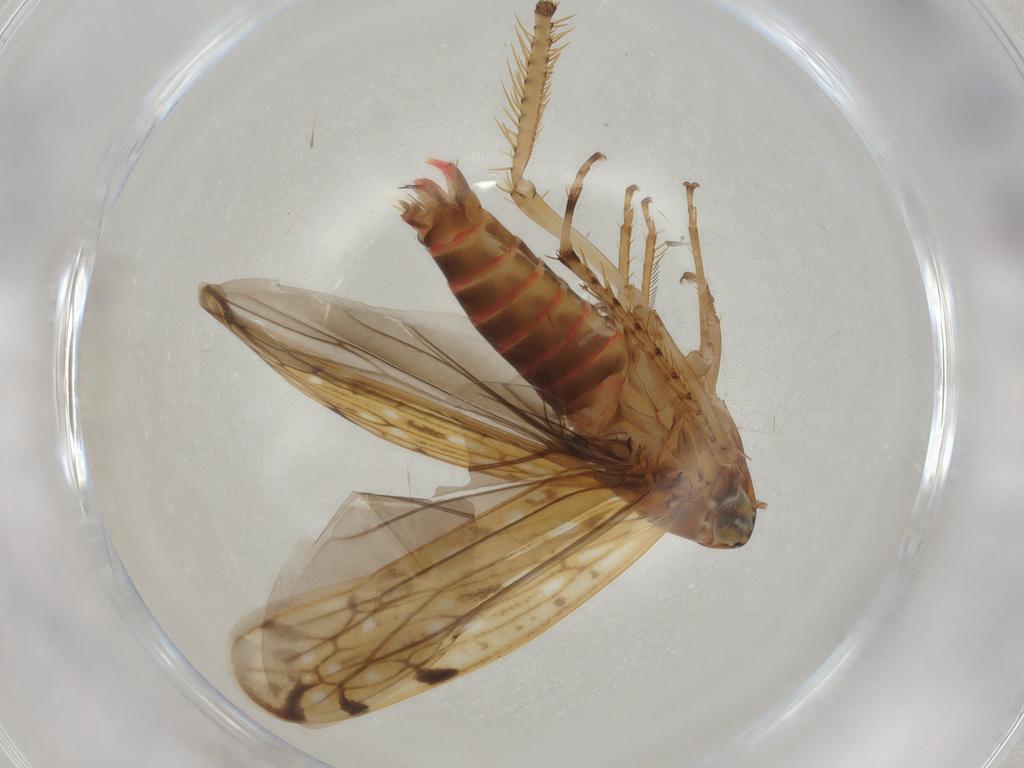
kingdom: Animalia
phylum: Arthropoda
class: Insecta
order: Hemiptera
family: Cicadellidae
